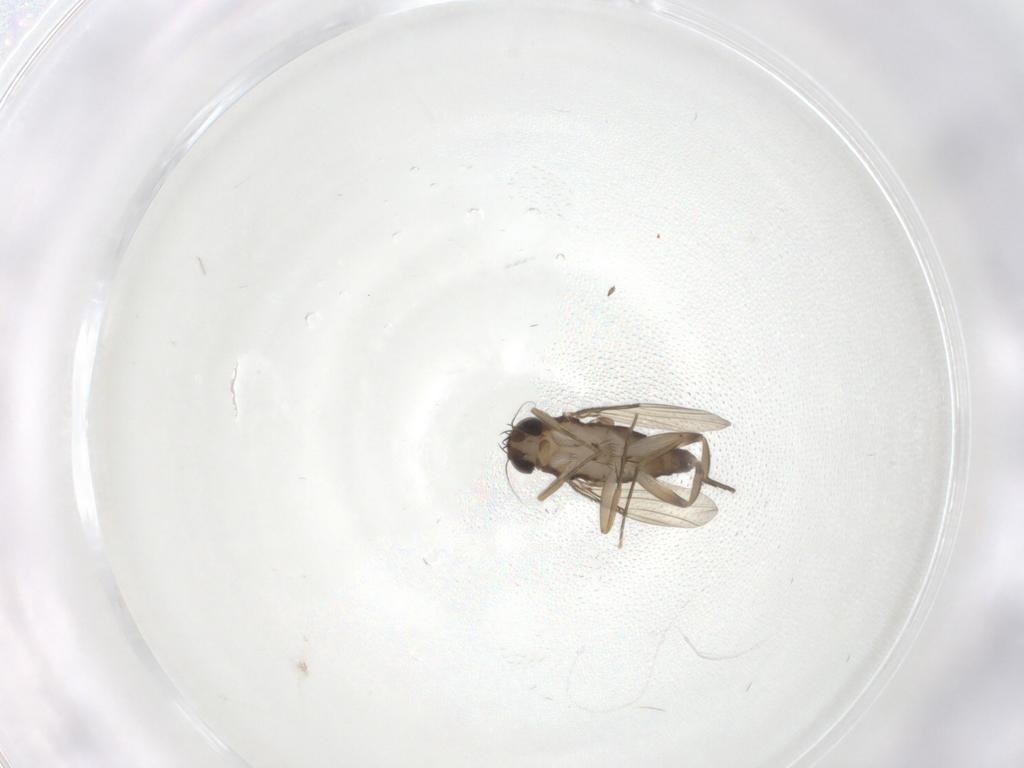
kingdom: Animalia
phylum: Arthropoda
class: Insecta
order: Diptera
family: Phoridae
